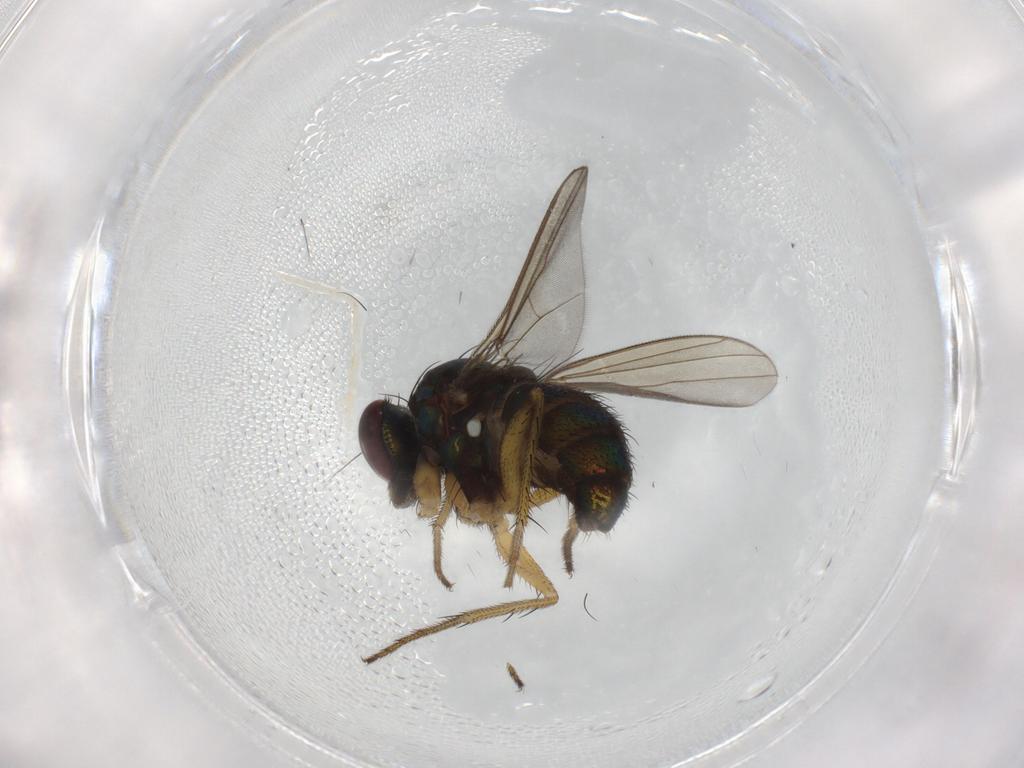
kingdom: Animalia
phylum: Arthropoda
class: Insecta
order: Diptera
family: Dolichopodidae
